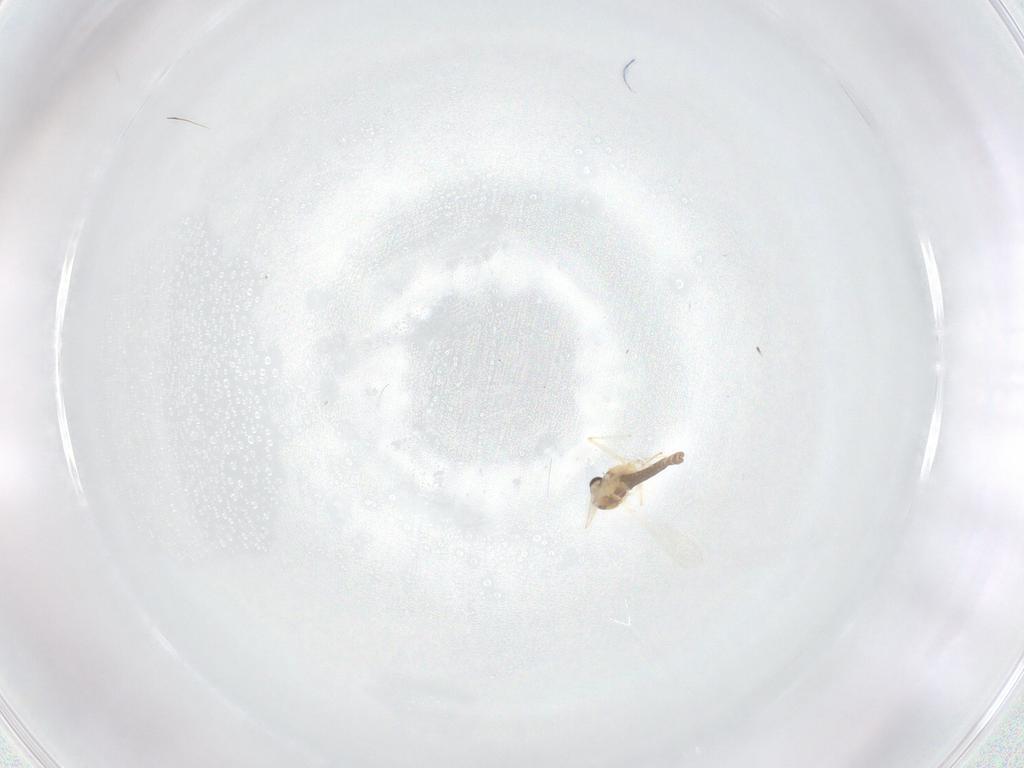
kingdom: Animalia
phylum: Arthropoda
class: Insecta
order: Diptera
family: Chironomidae
